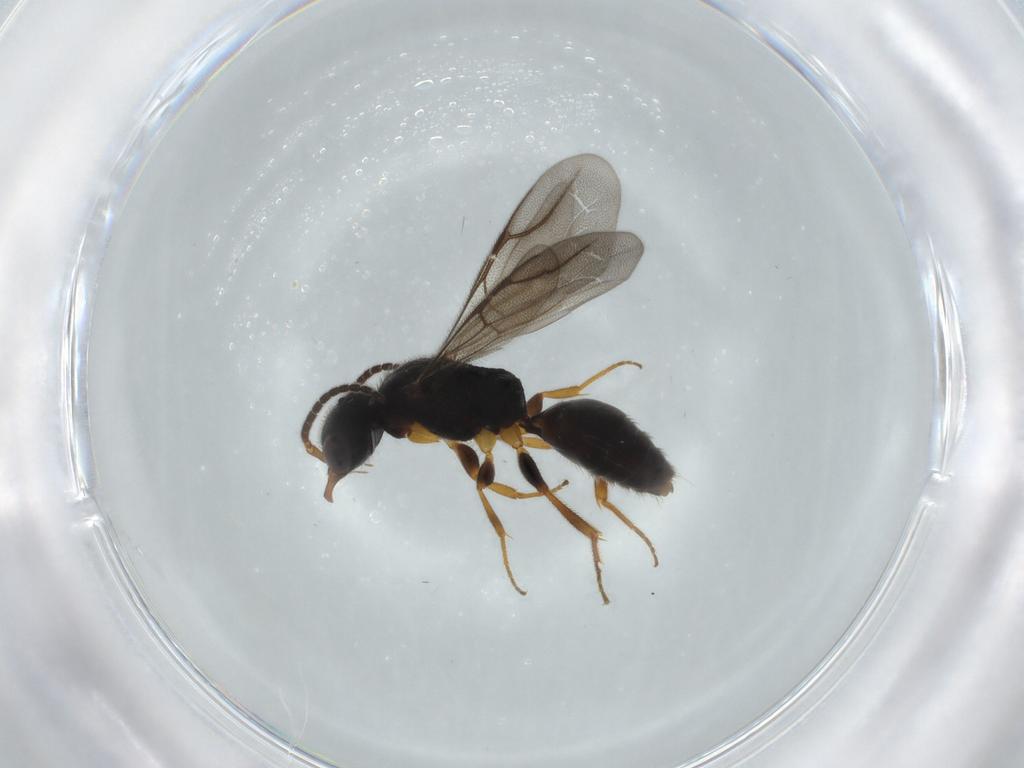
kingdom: Animalia
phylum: Arthropoda
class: Insecta
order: Hymenoptera
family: Bethylidae
